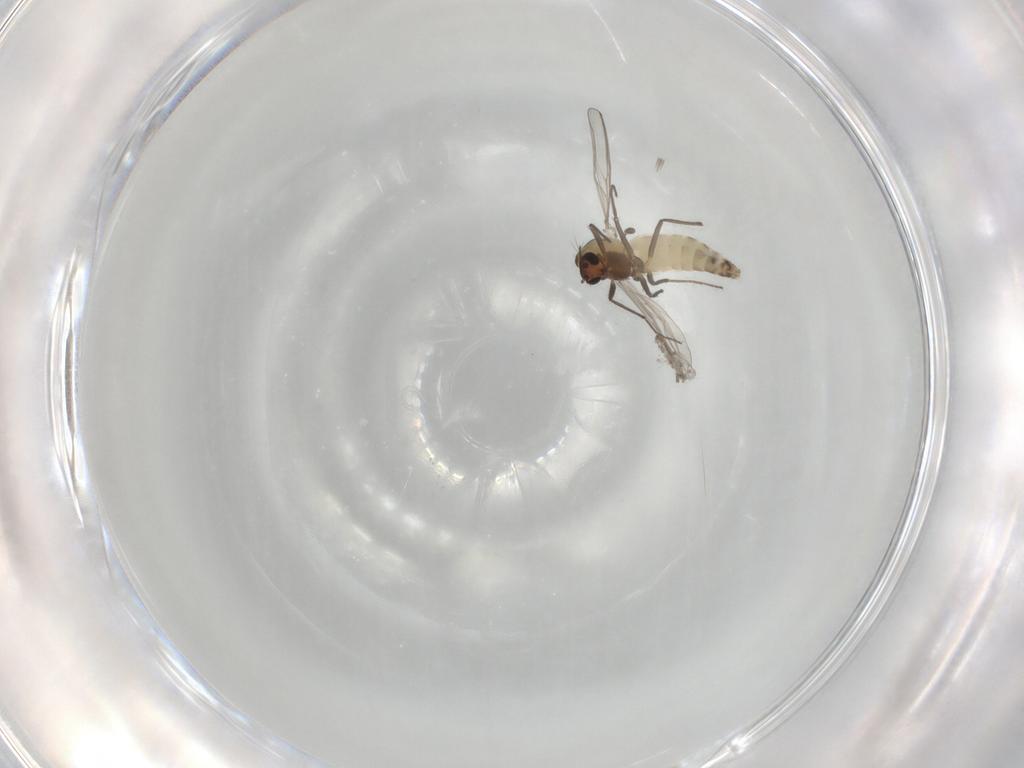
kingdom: Animalia
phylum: Arthropoda
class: Insecta
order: Diptera
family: Psychodidae
